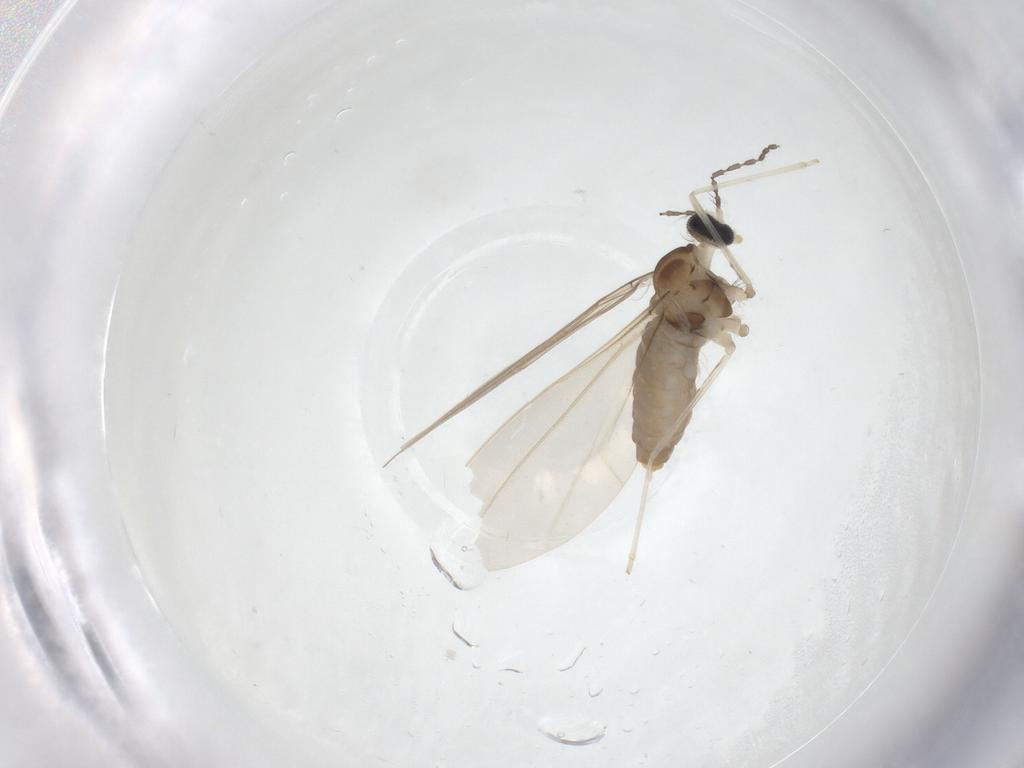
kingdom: Animalia
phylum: Arthropoda
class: Insecta
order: Diptera
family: Cecidomyiidae
